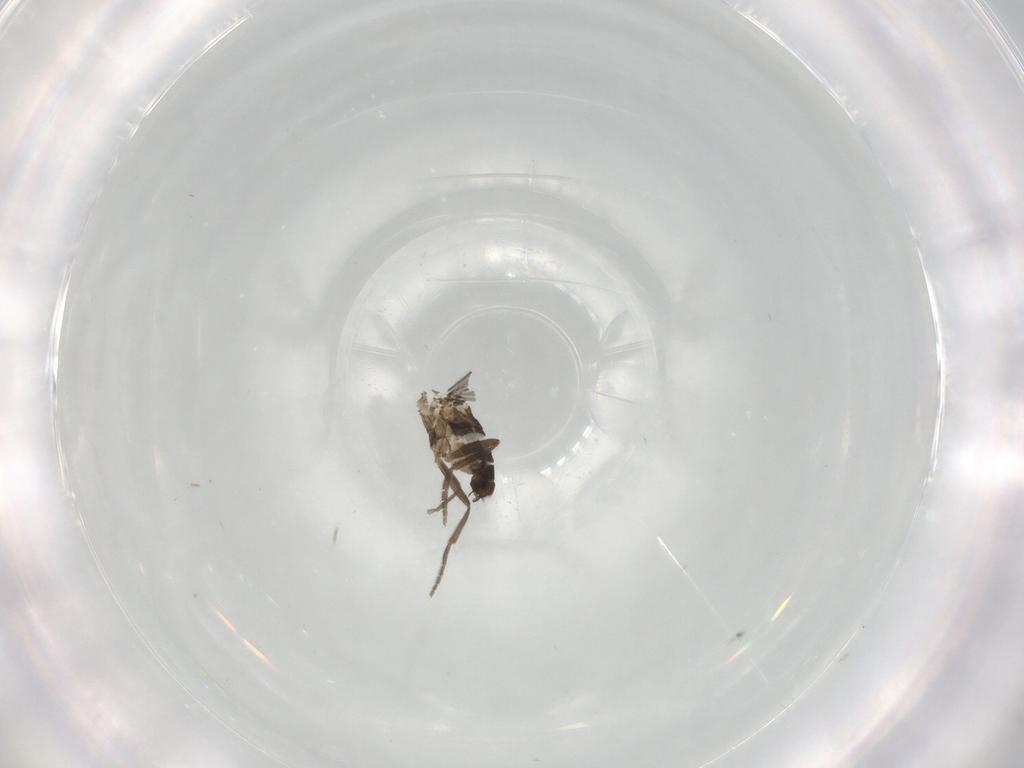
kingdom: Animalia
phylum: Arthropoda
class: Insecta
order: Diptera
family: Phoridae
